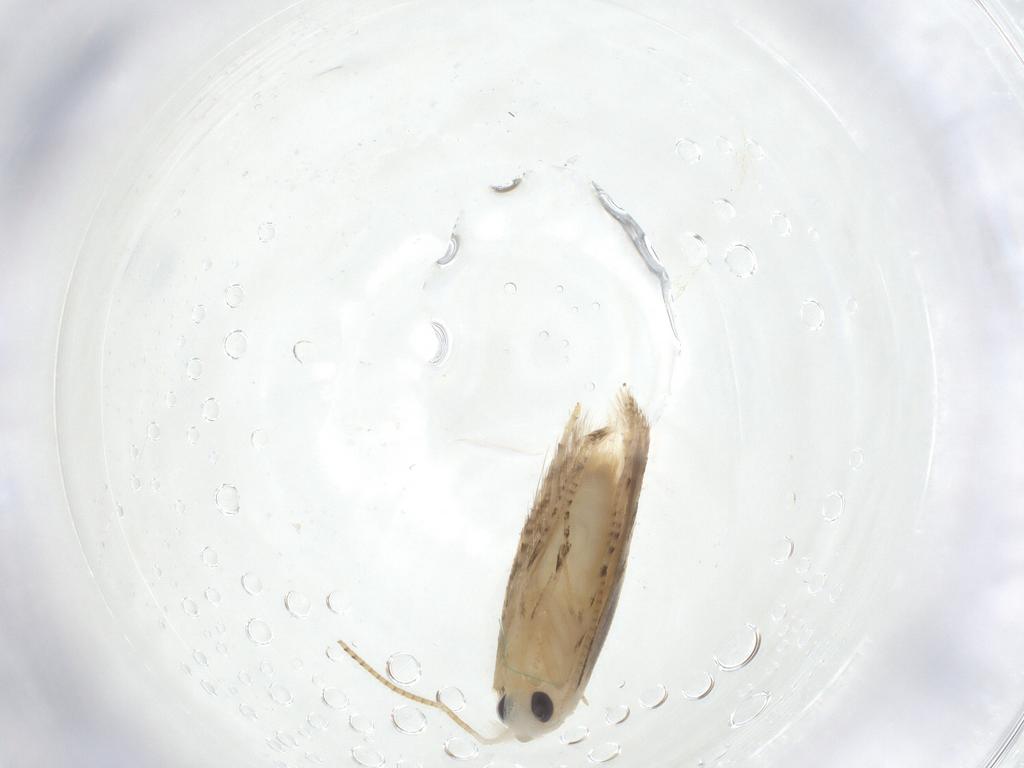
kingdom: Animalia
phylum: Arthropoda
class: Insecta
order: Lepidoptera
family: Bucculatricidae
